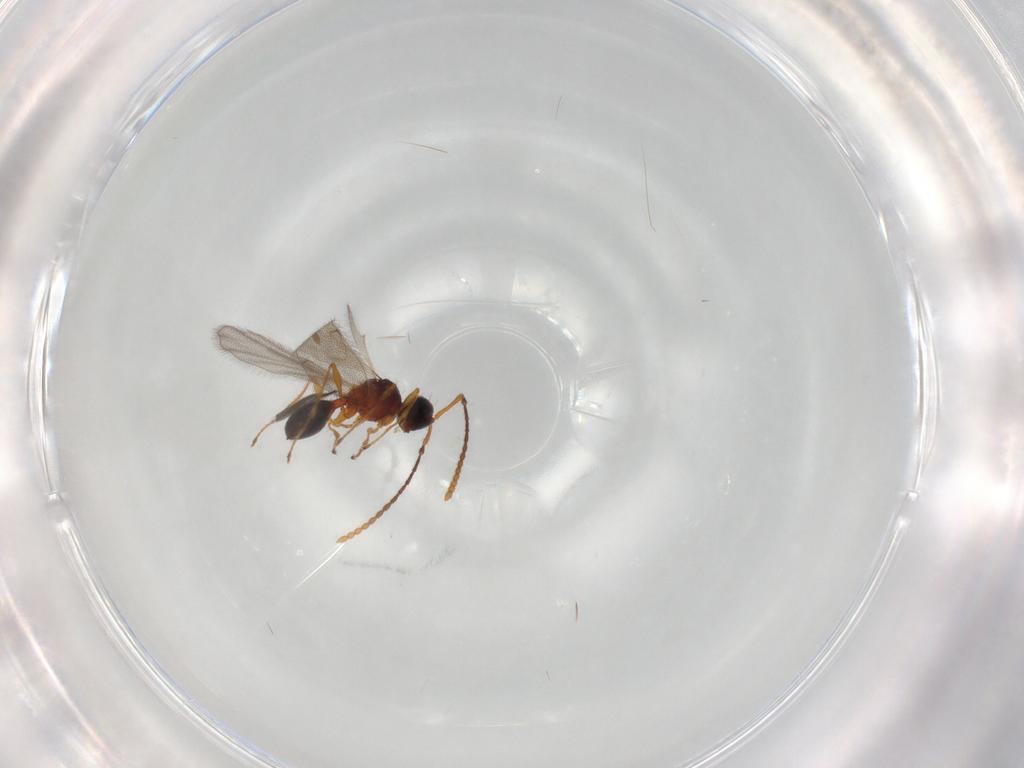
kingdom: Animalia
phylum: Arthropoda
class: Insecta
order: Hymenoptera
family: Diapriidae
